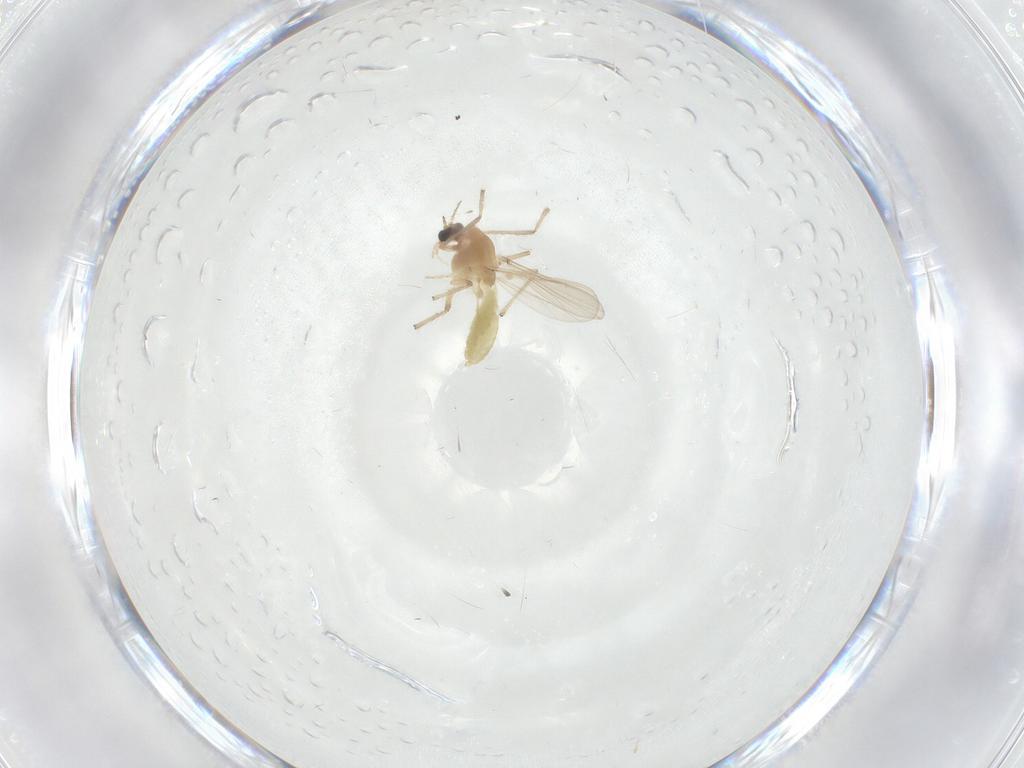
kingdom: Animalia
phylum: Arthropoda
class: Insecta
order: Diptera
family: Chironomidae
